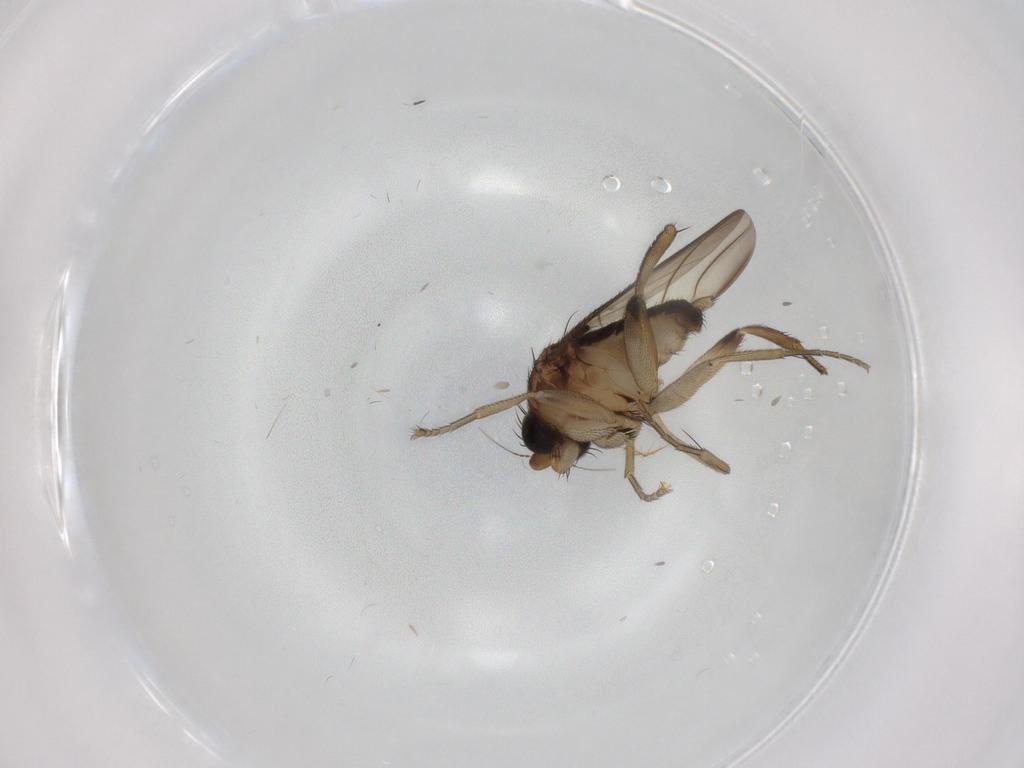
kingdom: Animalia
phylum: Arthropoda
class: Insecta
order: Diptera
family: Phoridae
